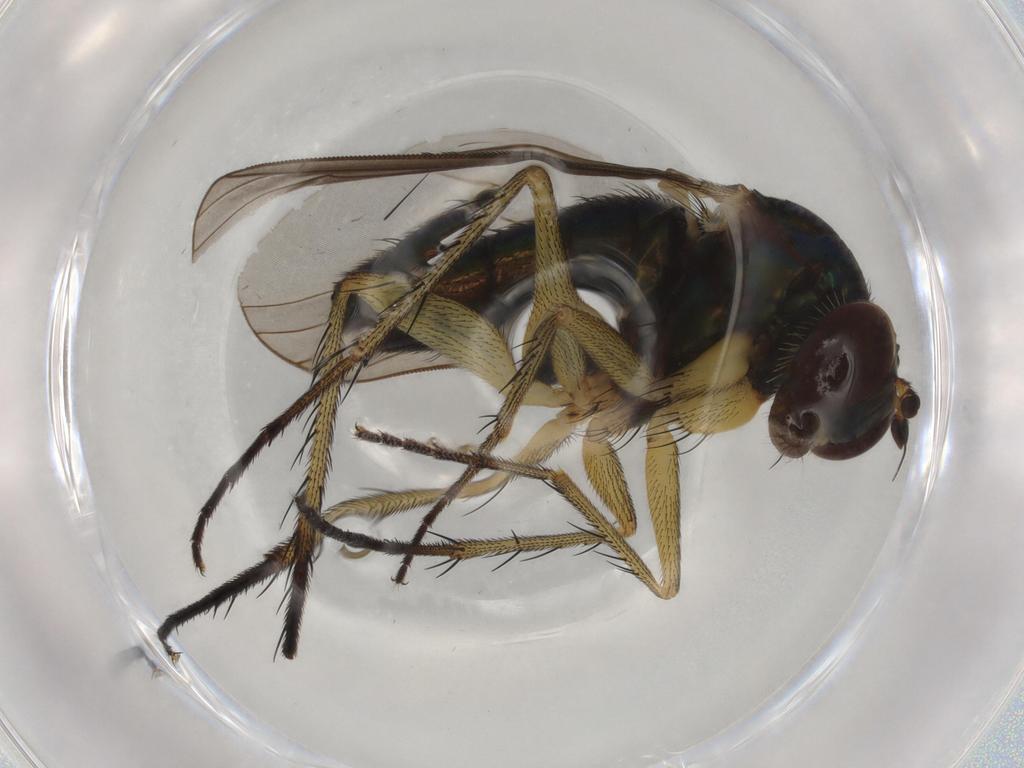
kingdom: Animalia
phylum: Arthropoda
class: Insecta
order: Diptera
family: Dolichopodidae
